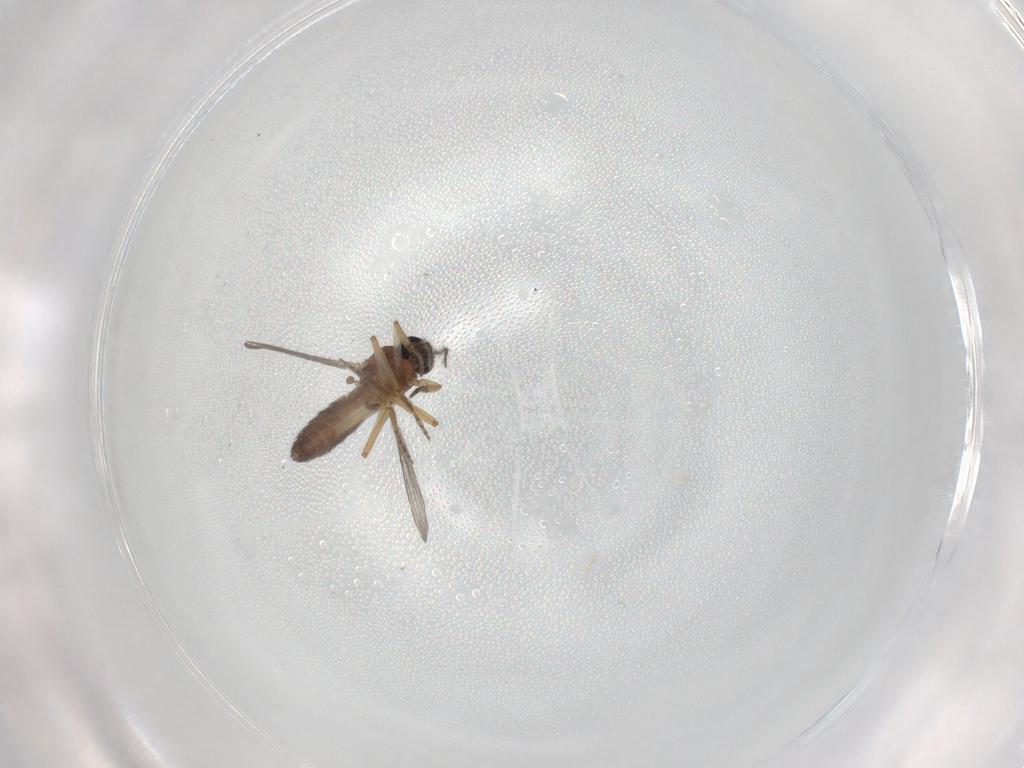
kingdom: Animalia
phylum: Arthropoda
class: Insecta
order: Diptera
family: Ceratopogonidae
